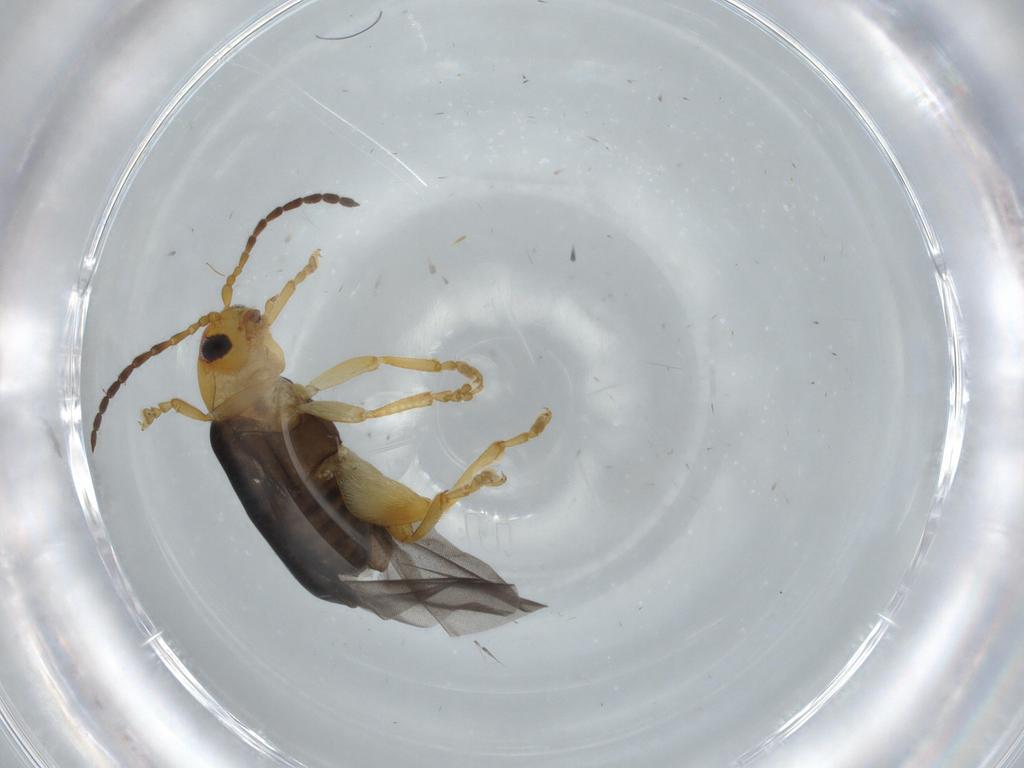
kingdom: Animalia
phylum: Arthropoda
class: Insecta
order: Coleoptera
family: Chrysomelidae
